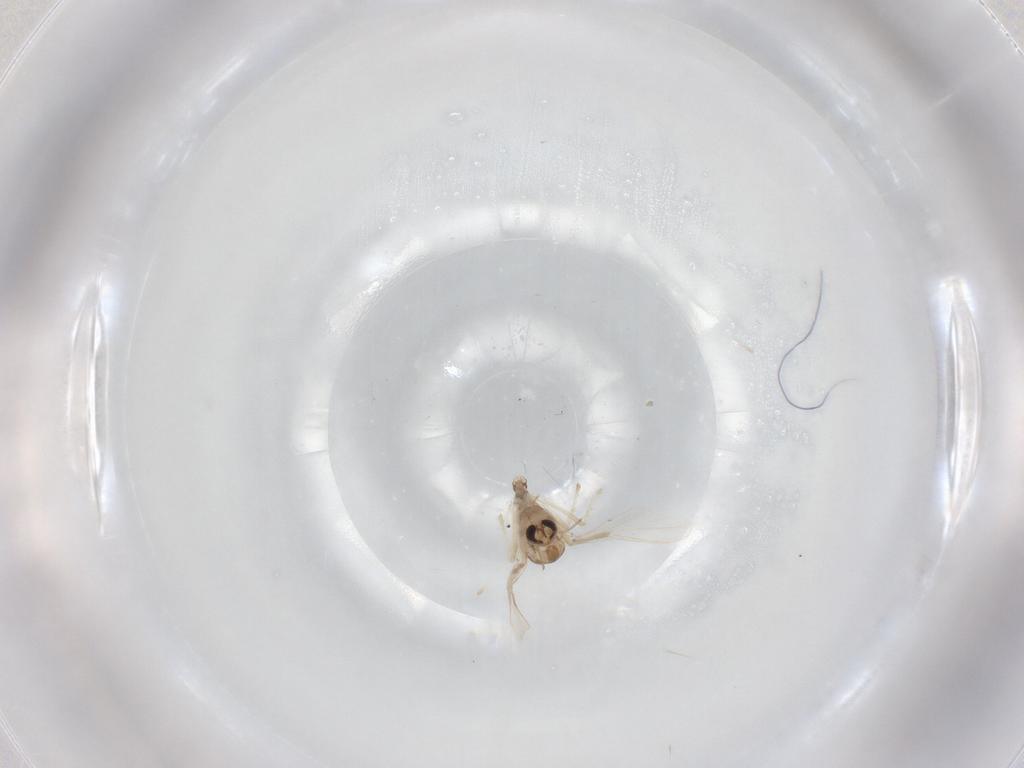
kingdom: Animalia
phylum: Arthropoda
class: Insecta
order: Diptera
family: Chironomidae
